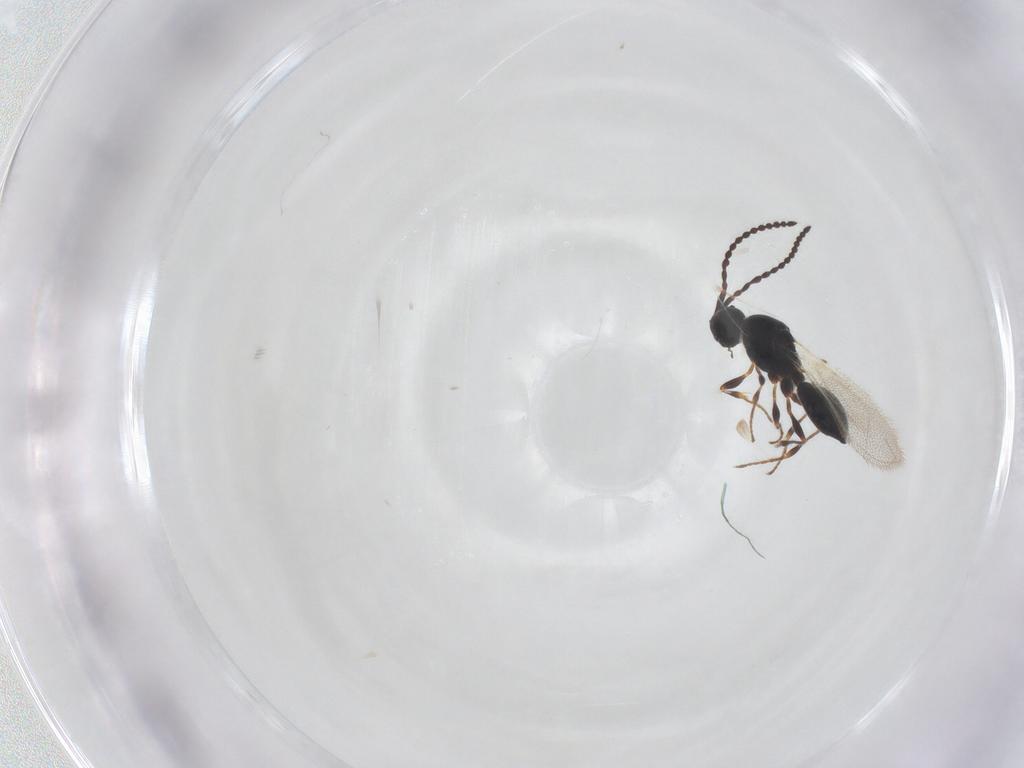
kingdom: Animalia
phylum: Arthropoda
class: Insecta
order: Hymenoptera
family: Diapriidae
